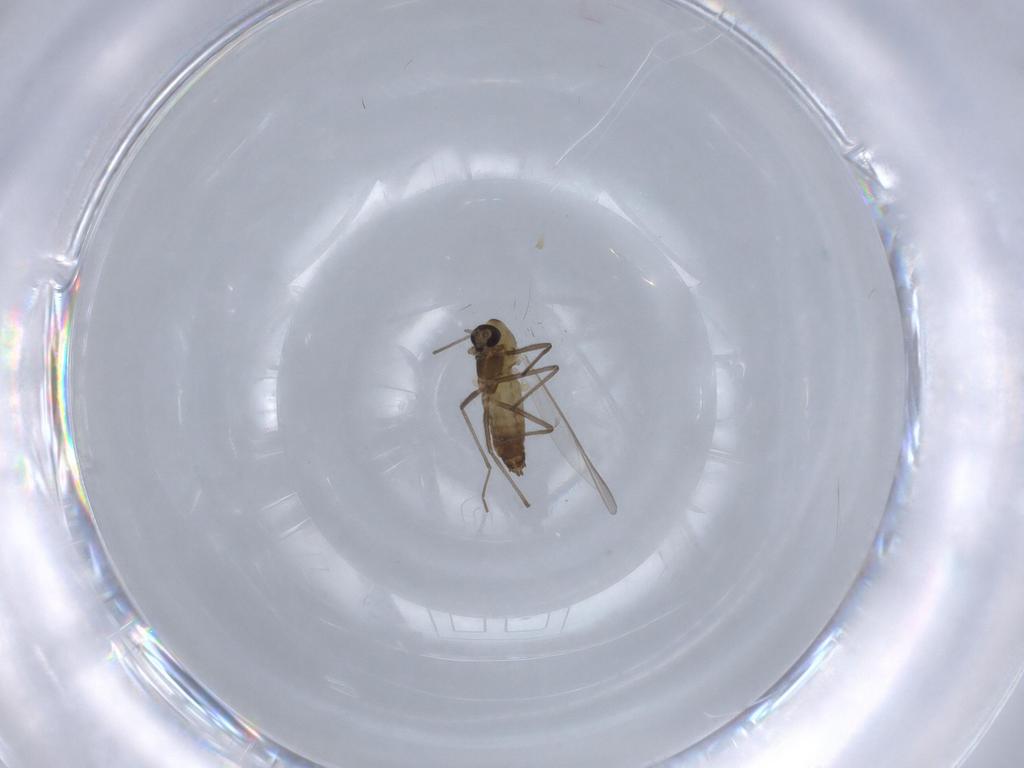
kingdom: Animalia
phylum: Arthropoda
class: Insecta
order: Diptera
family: Chironomidae
